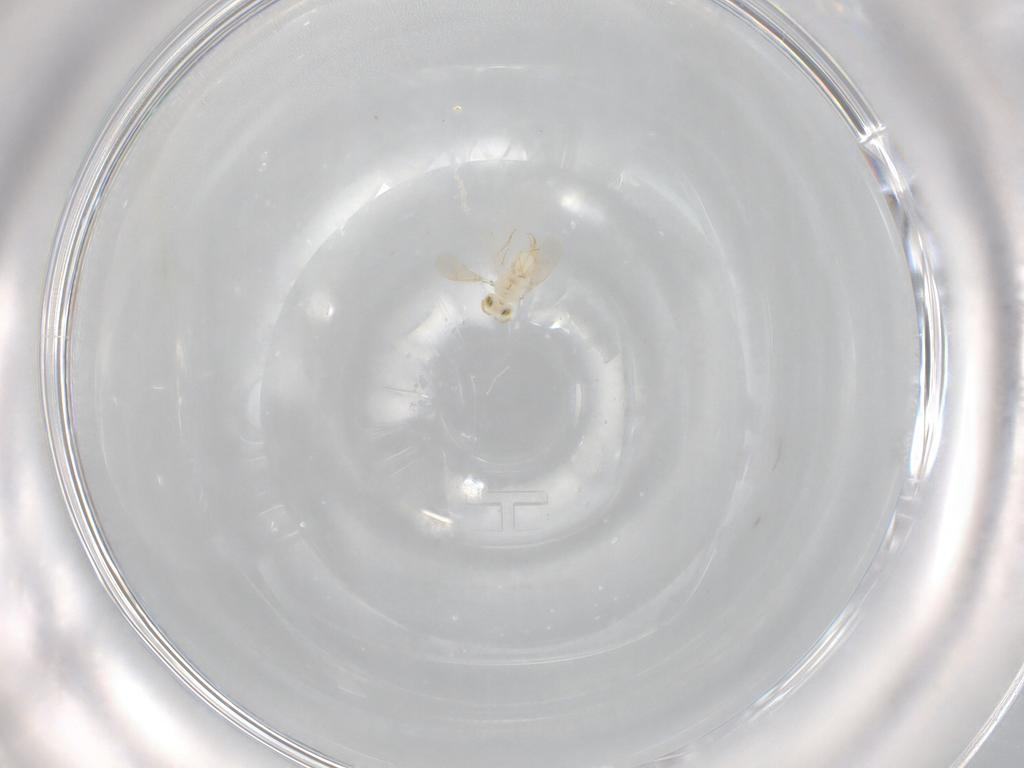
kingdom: Animalia
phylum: Arthropoda
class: Insecta
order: Hymenoptera
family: Aphelinidae
